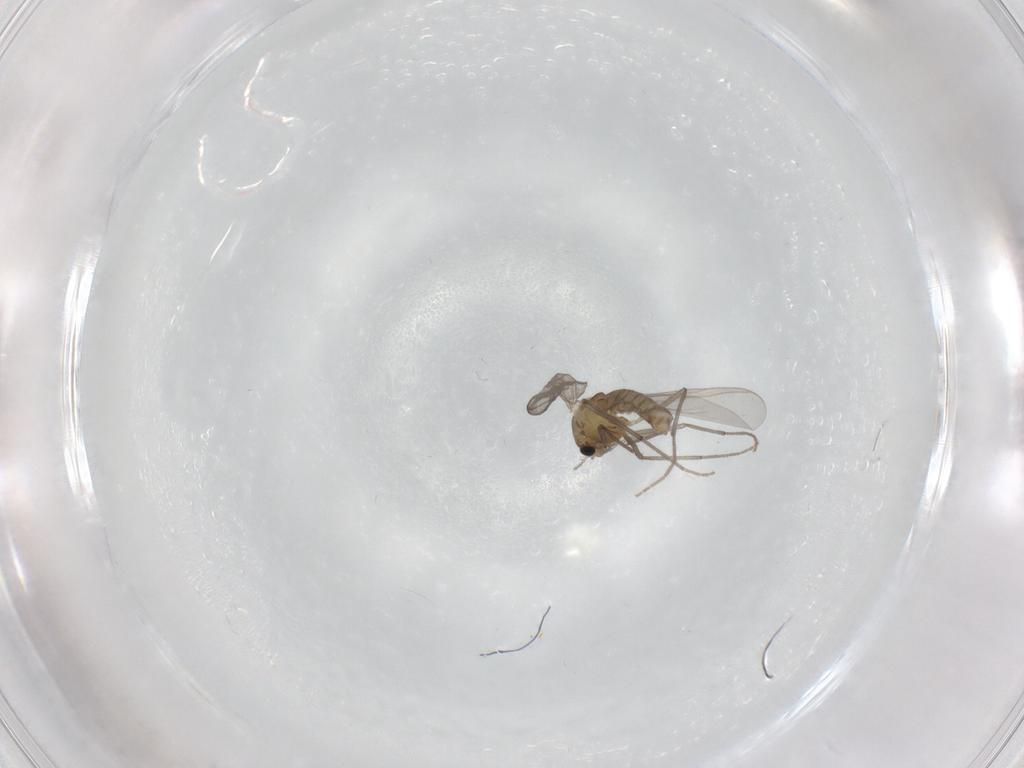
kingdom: Animalia
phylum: Arthropoda
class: Insecta
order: Diptera
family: Chironomidae
